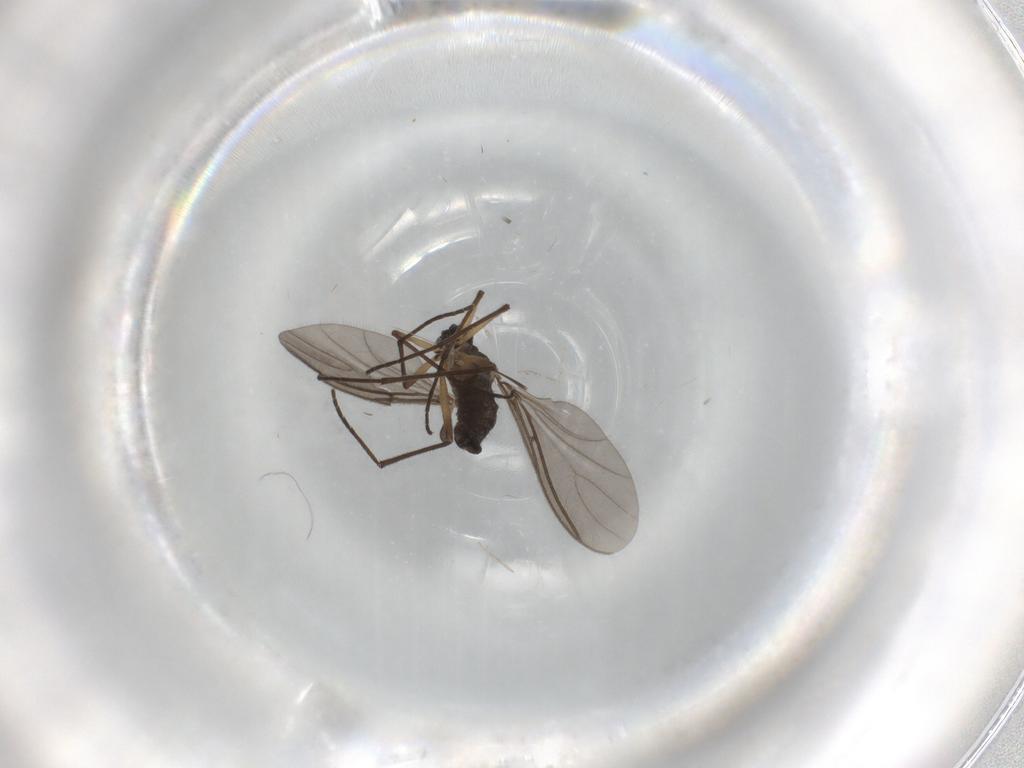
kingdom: Animalia
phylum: Arthropoda
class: Insecta
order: Diptera
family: Sciaridae
